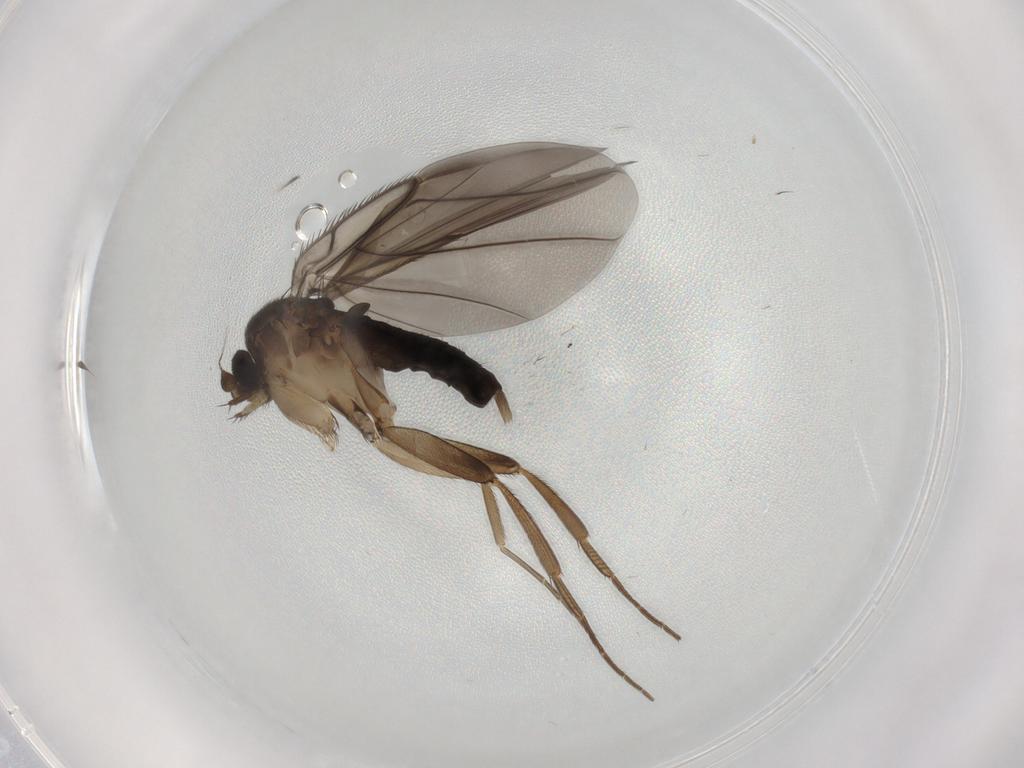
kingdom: Animalia
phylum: Arthropoda
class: Insecta
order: Diptera
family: Phoridae
